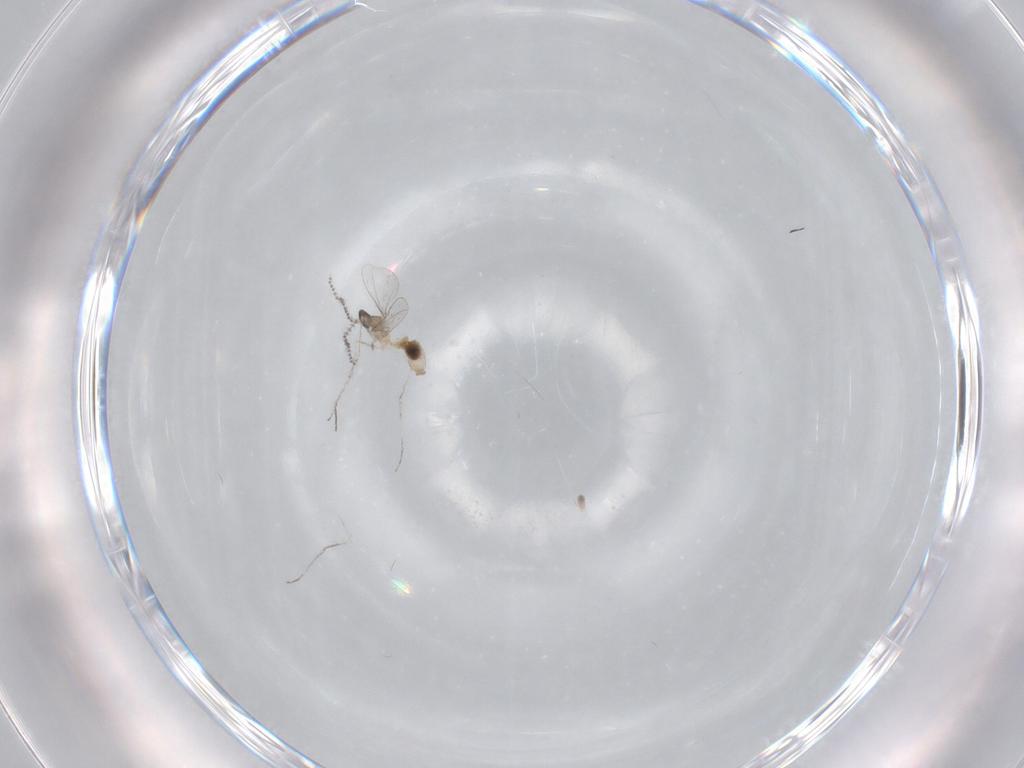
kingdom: Animalia
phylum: Arthropoda
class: Insecta
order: Diptera
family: Cecidomyiidae
